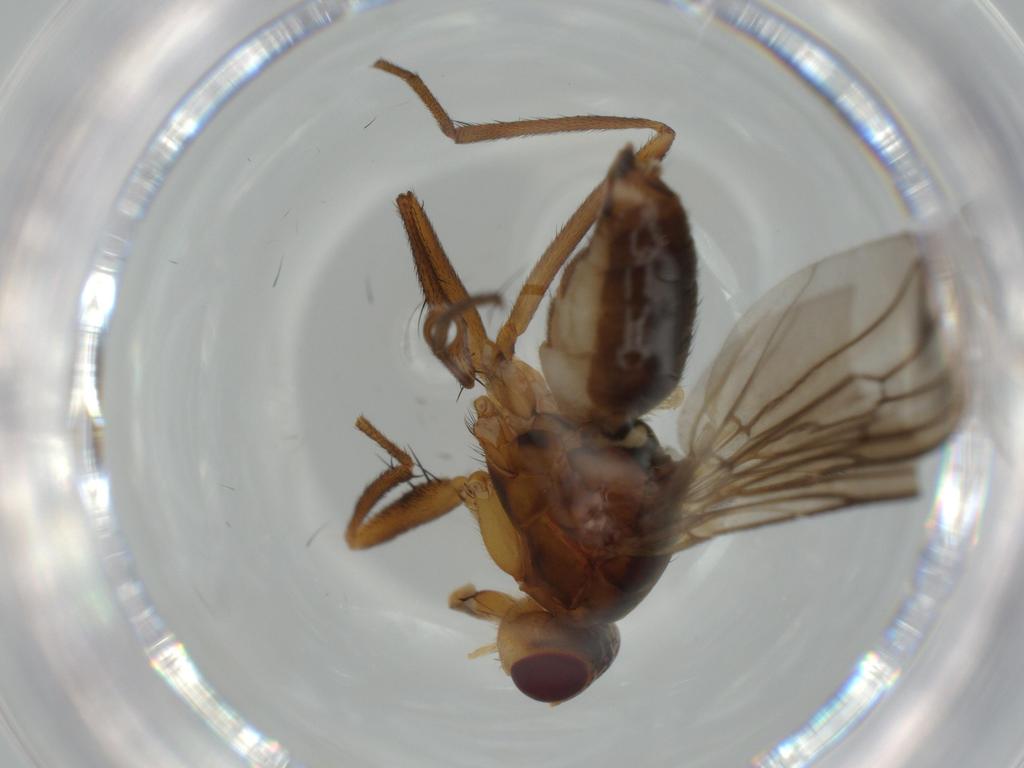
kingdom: Animalia
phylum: Arthropoda
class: Insecta
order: Diptera
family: Scathophagidae
